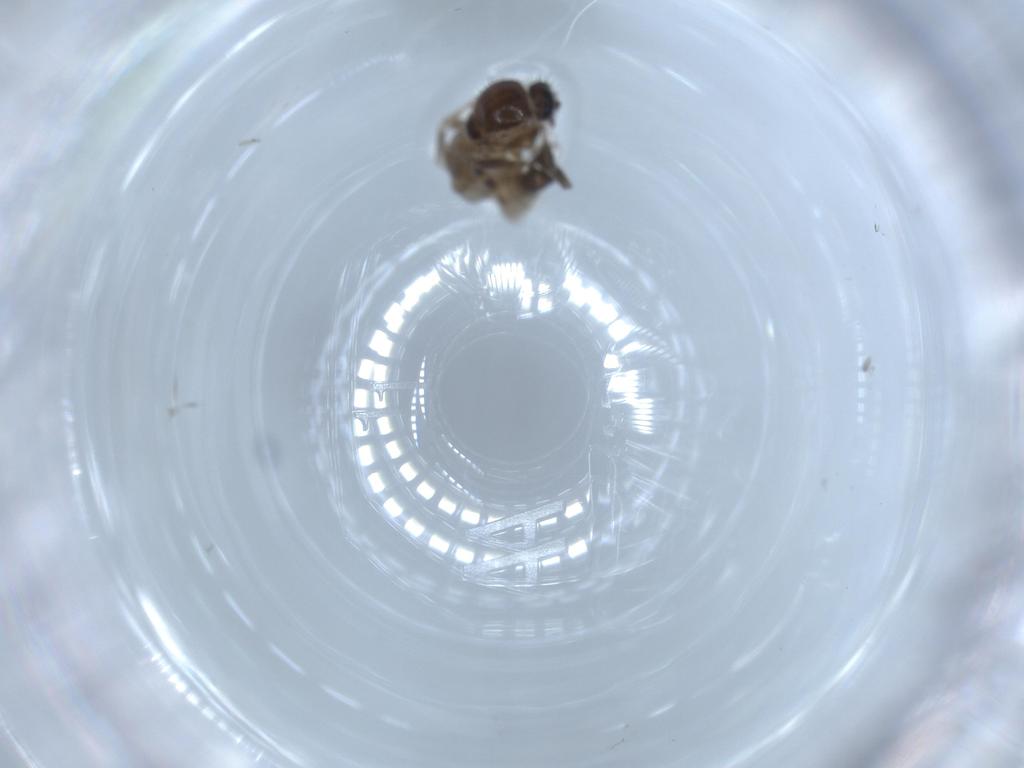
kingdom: Animalia
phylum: Arthropoda
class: Insecta
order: Diptera
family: Ceratopogonidae
